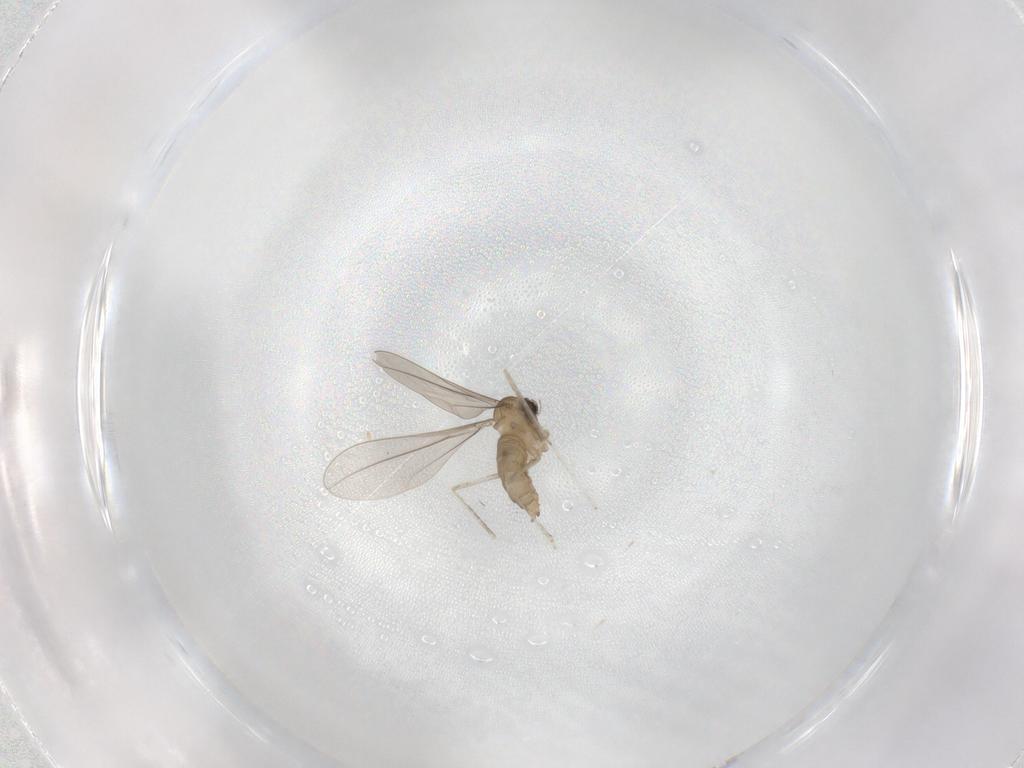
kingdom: Animalia
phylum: Arthropoda
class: Insecta
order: Diptera
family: Cecidomyiidae
